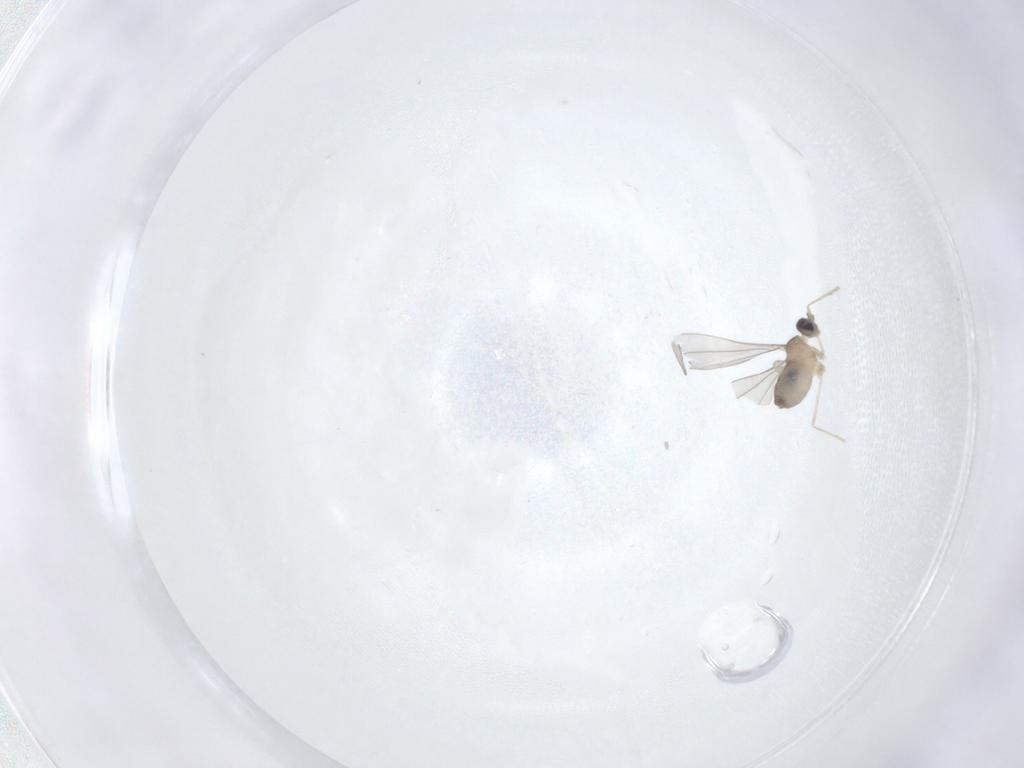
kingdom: Animalia
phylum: Arthropoda
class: Insecta
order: Diptera
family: Cecidomyiidae
